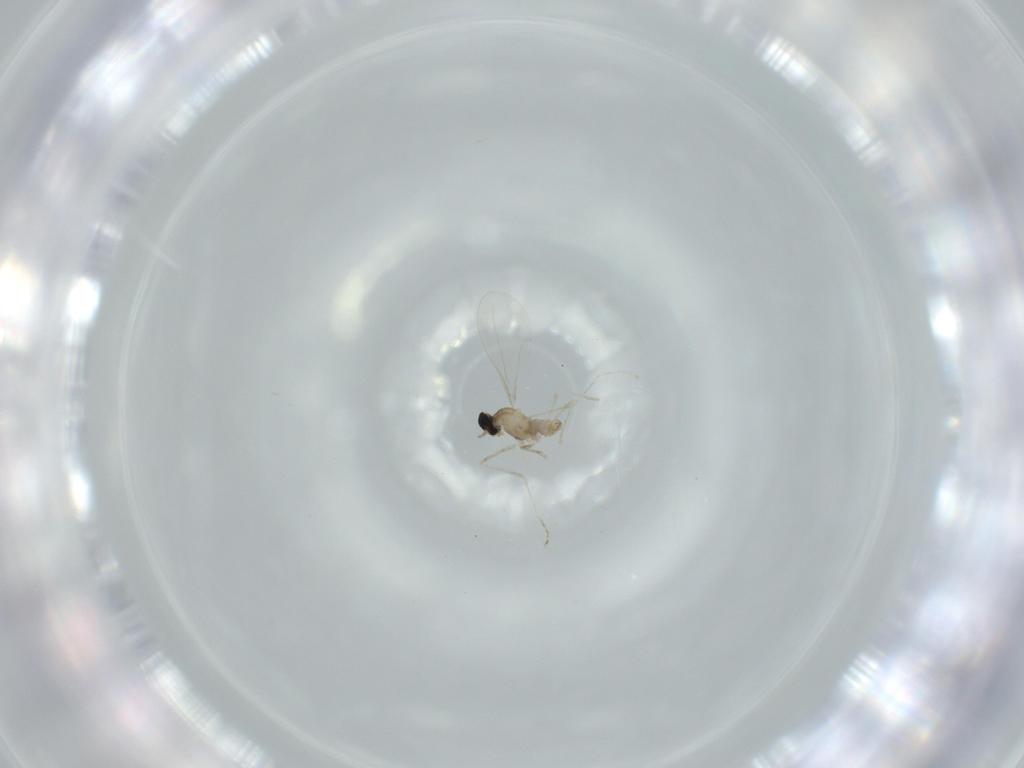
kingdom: Animalia
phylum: Arthropoda
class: Insecta
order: Diptera
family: Cecidomyiidae
